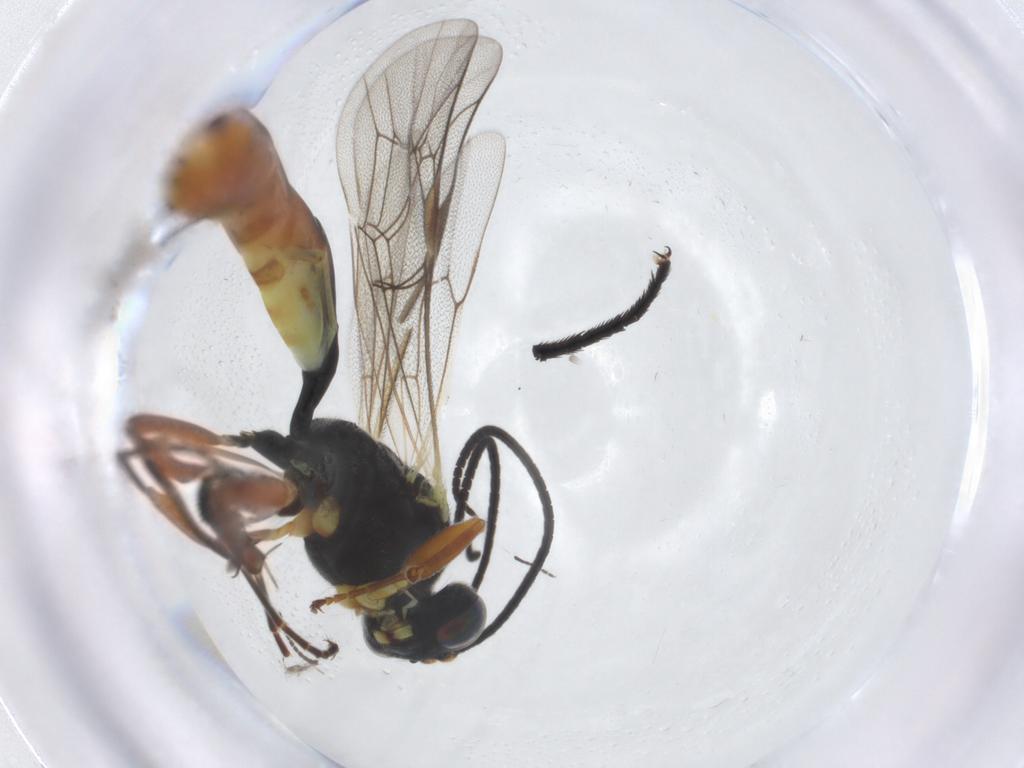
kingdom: Animalia
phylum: Arthropoda
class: Insecta
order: Hymenoptera
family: Ichneumonidae
